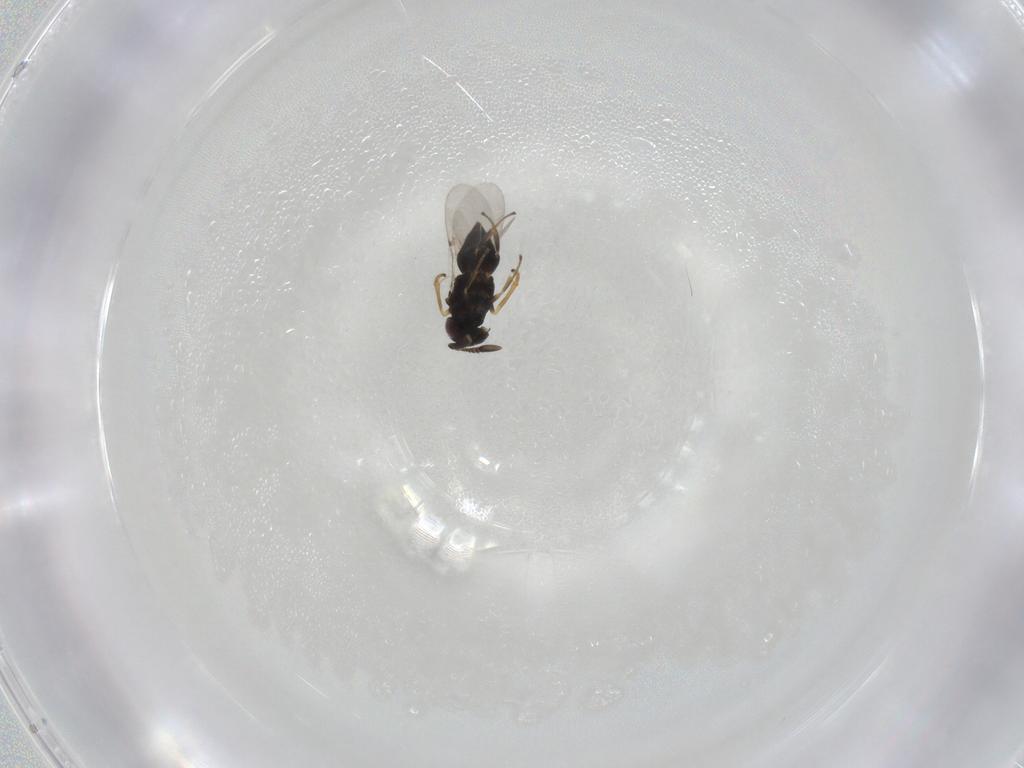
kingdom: Animalia
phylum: Arthropoda
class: Insecta
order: Hymenoptera
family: Encyrtidae
